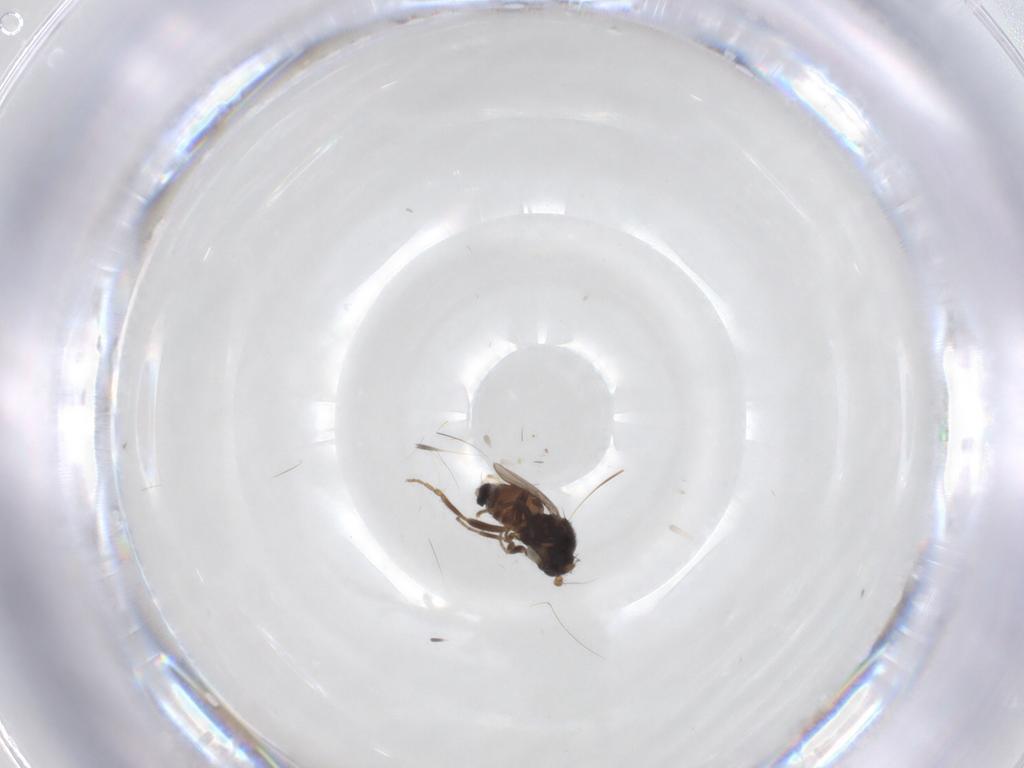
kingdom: Animalia
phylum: Arthropoda
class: Insecta
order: Diptera
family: Sphaeroceridae
